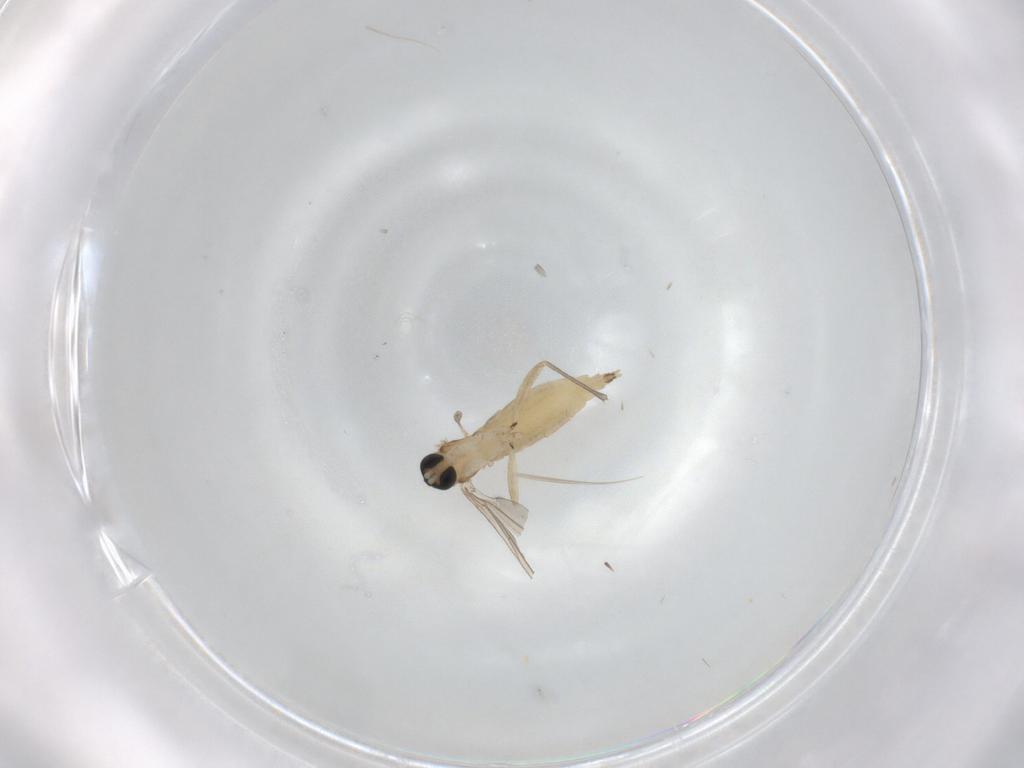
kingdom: Animalia
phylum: Arthropoda
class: Insecta
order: Diptera
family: Sciaridae
